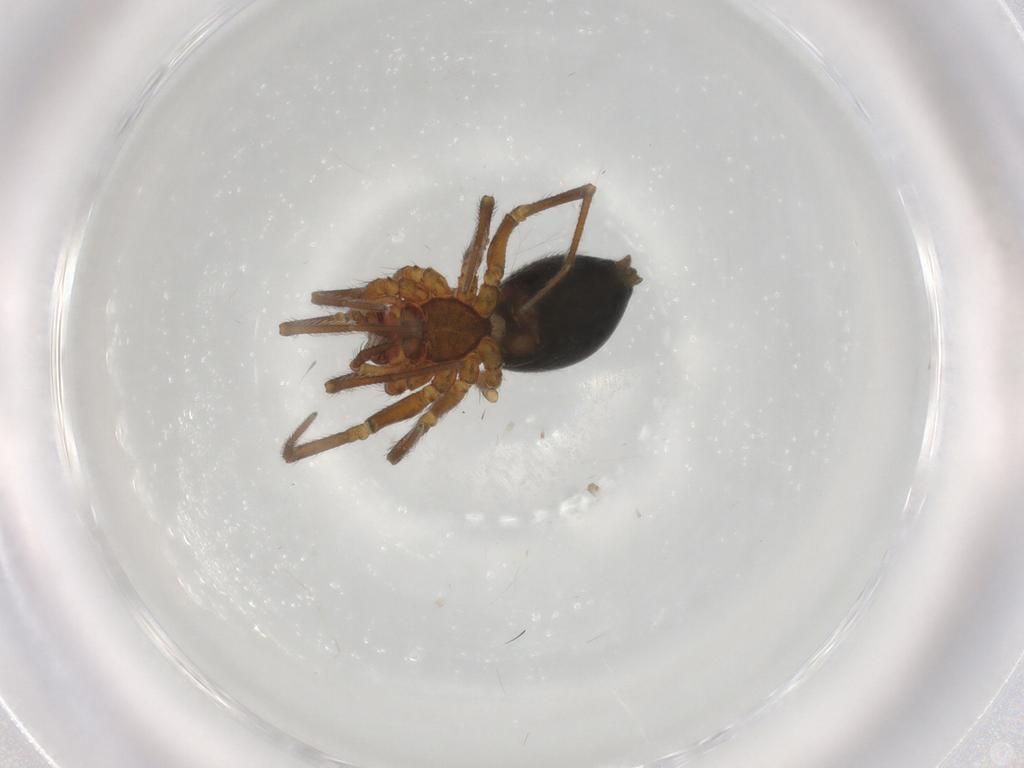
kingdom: Animalia
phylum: Arthropoda
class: Arachnida
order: Araneae
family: Linyphiidae
